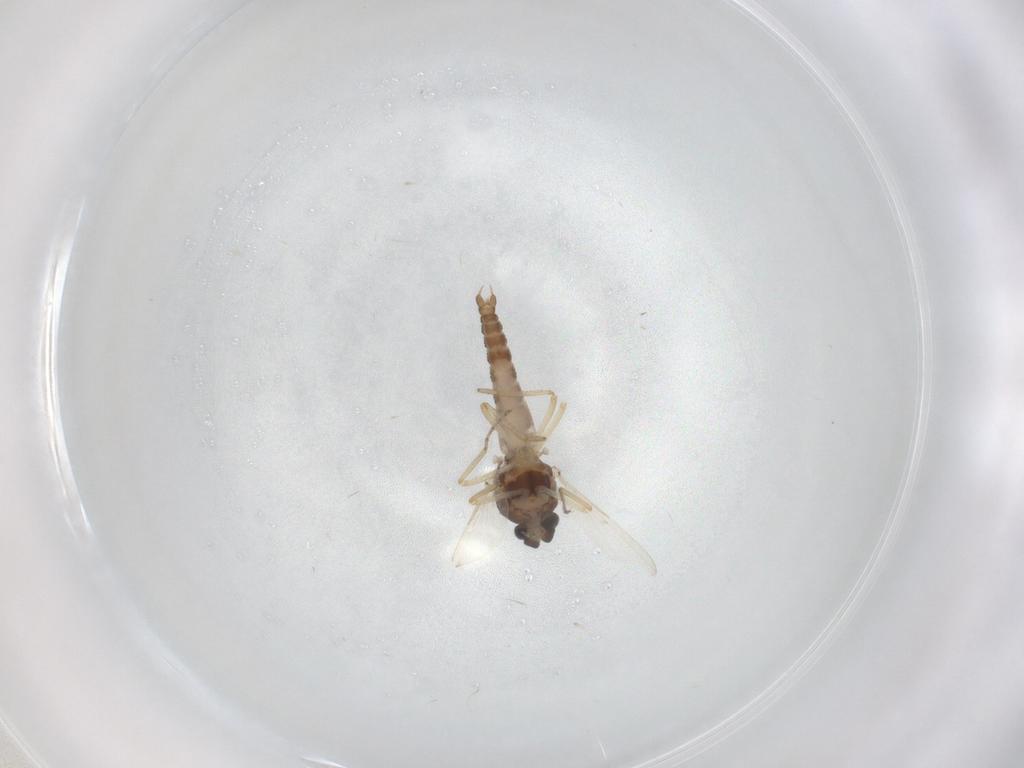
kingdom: Animalia
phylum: Arthropoda
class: Insecta
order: Diptera
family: Ceratopogonidae
